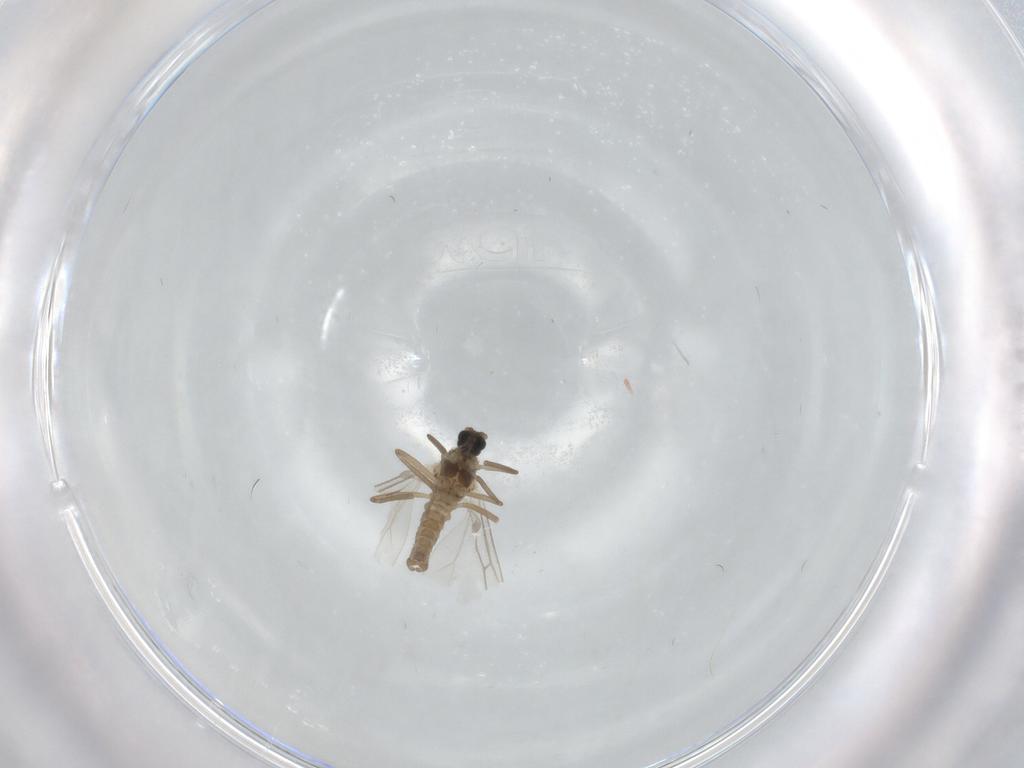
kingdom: Animalia
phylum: Arthropoda
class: Insecta
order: Diptera
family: Cecidomyiidae
